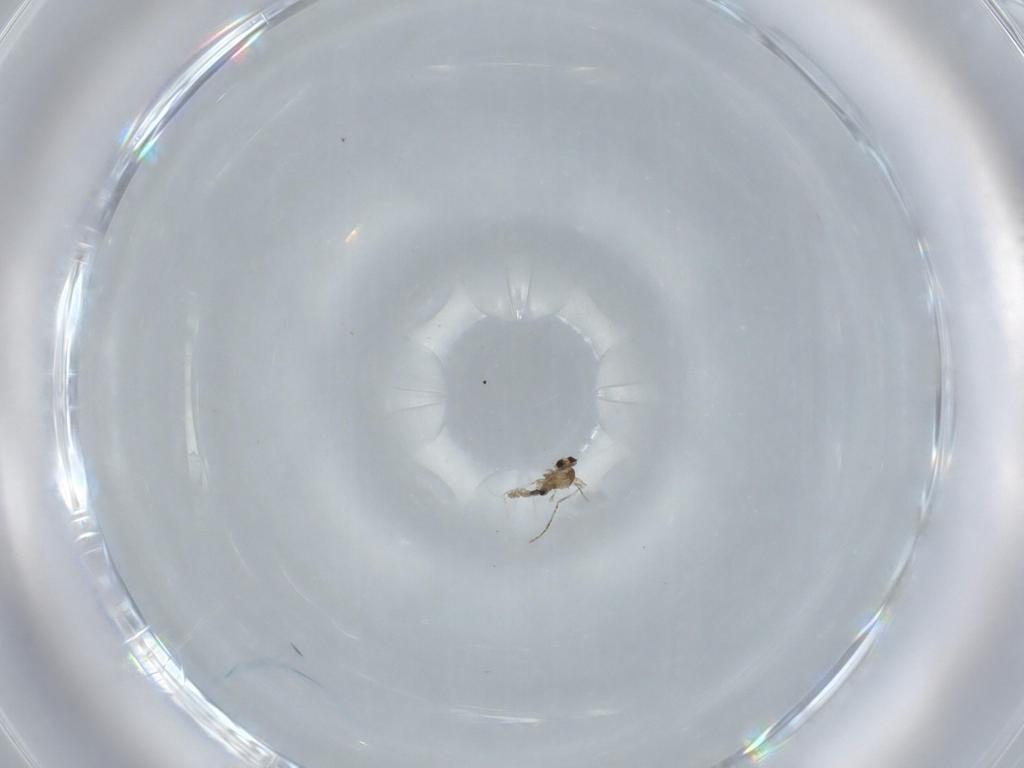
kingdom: Animalia
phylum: Arthropoda
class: Insecta
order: Diptera
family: Cecidomyiidae
